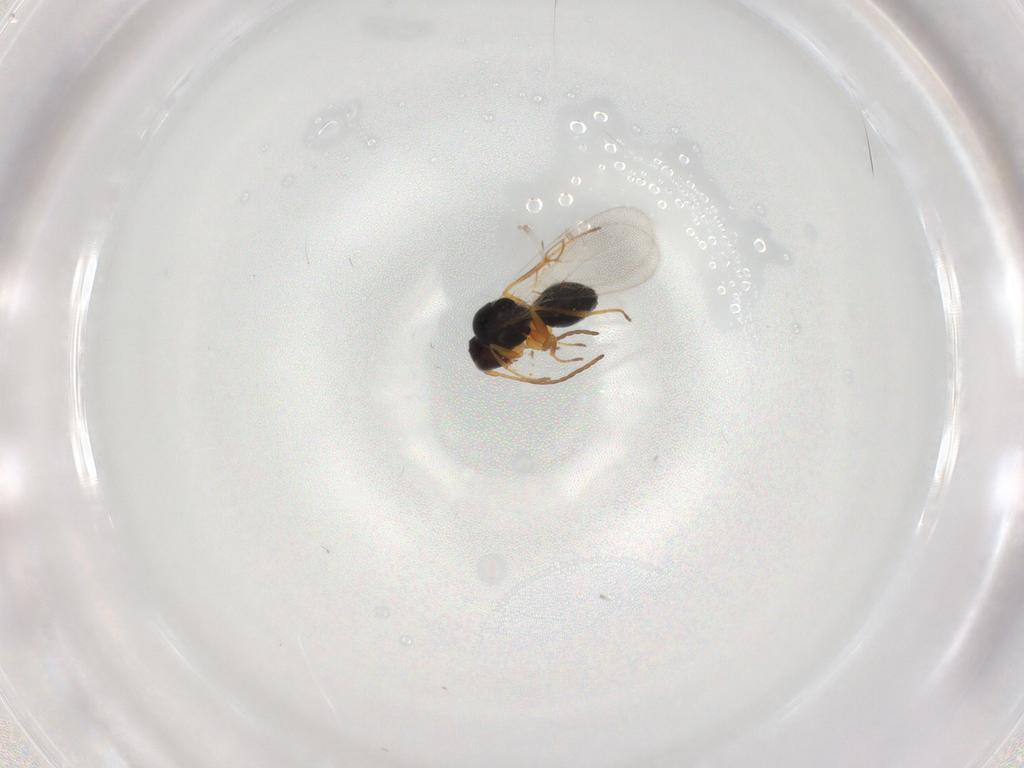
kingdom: Animalia
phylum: Arthropoda
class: Insecta
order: Hymenoptera
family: Figitidae
